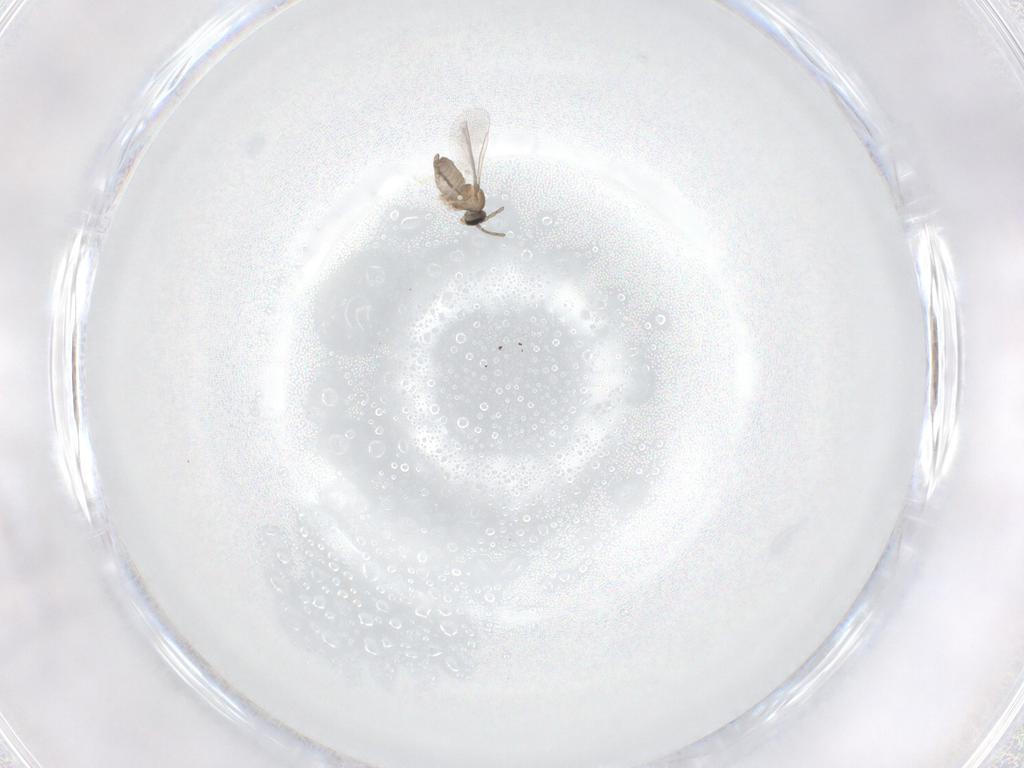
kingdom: Animalia
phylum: Arthropoda
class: Insecta
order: Diptera
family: Cecidomyiidae
